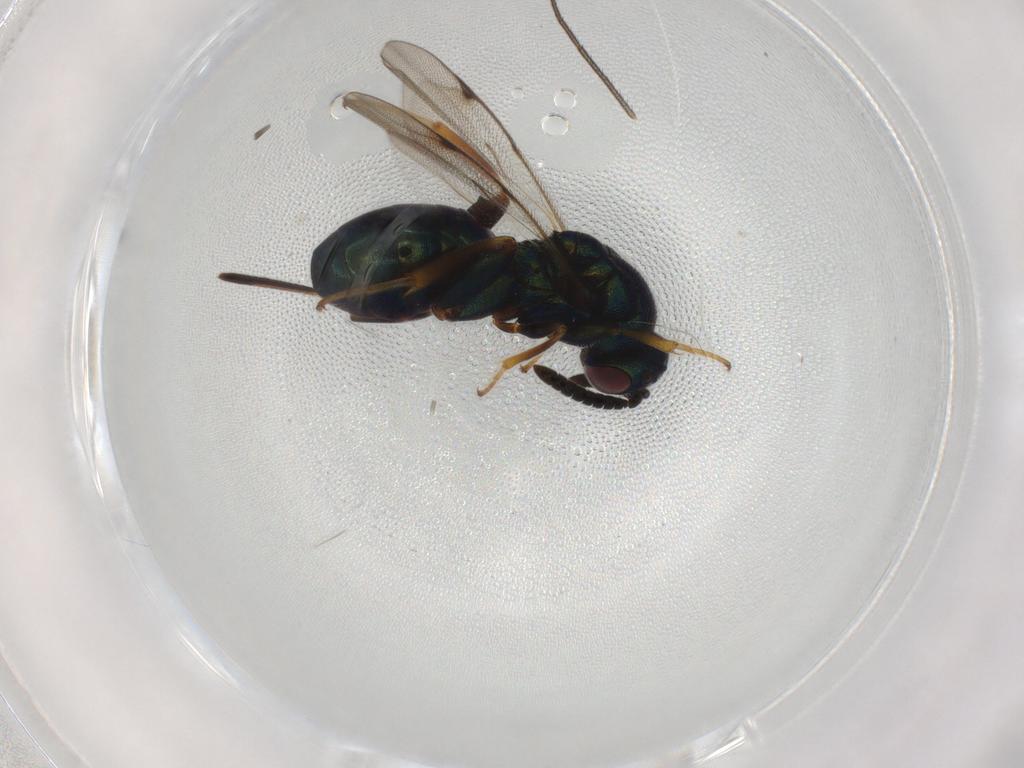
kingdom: Animalia
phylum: Arthropoda
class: Insecta
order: Hymenoptera
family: Torymidae
